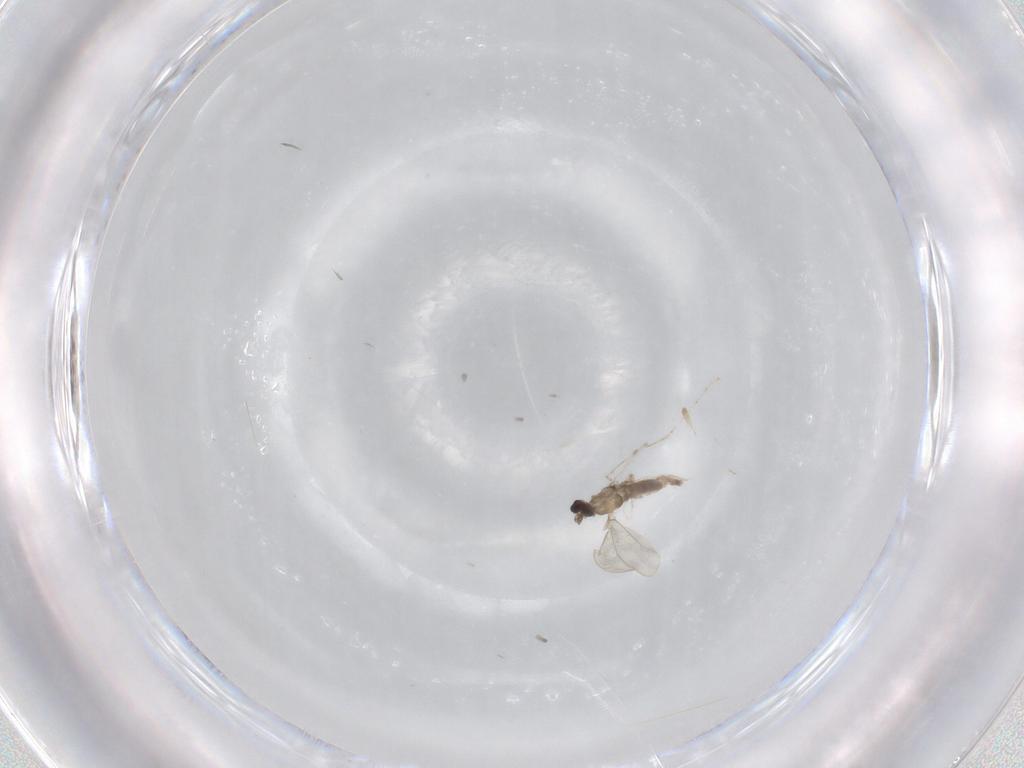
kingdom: Animalia
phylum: Arthropoda
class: Insecta
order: Diptera
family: Cecidomyiidae
